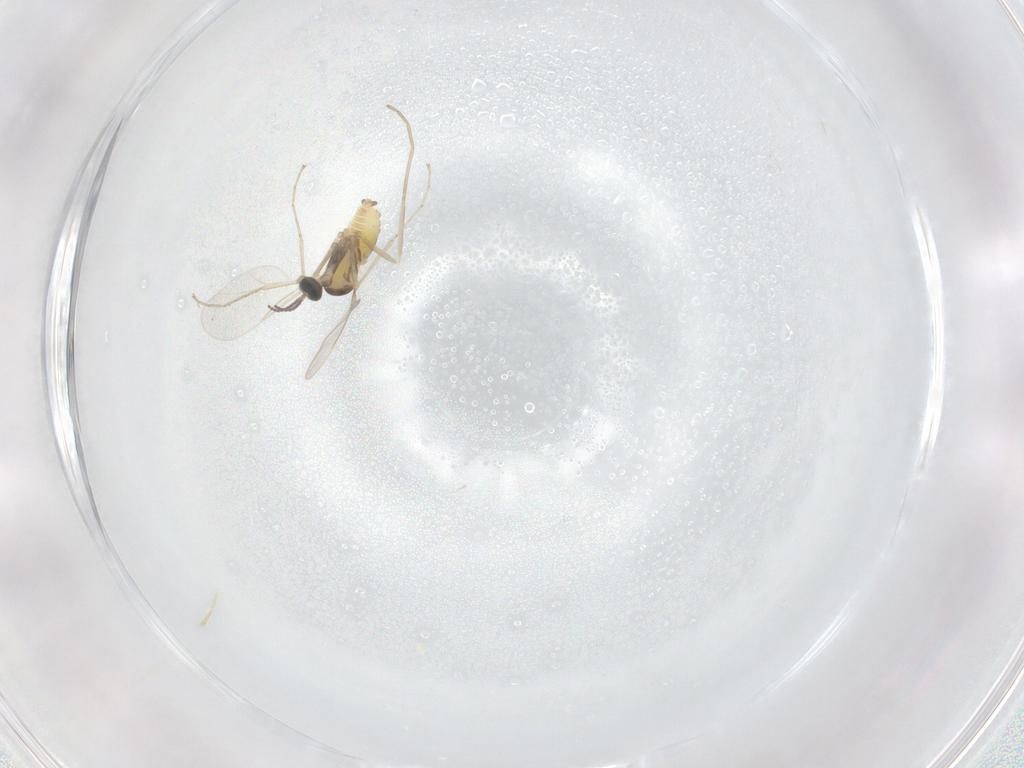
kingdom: Animalia
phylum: Arthropoda
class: Insecta
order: Diptera
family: Cecidomyiidae
